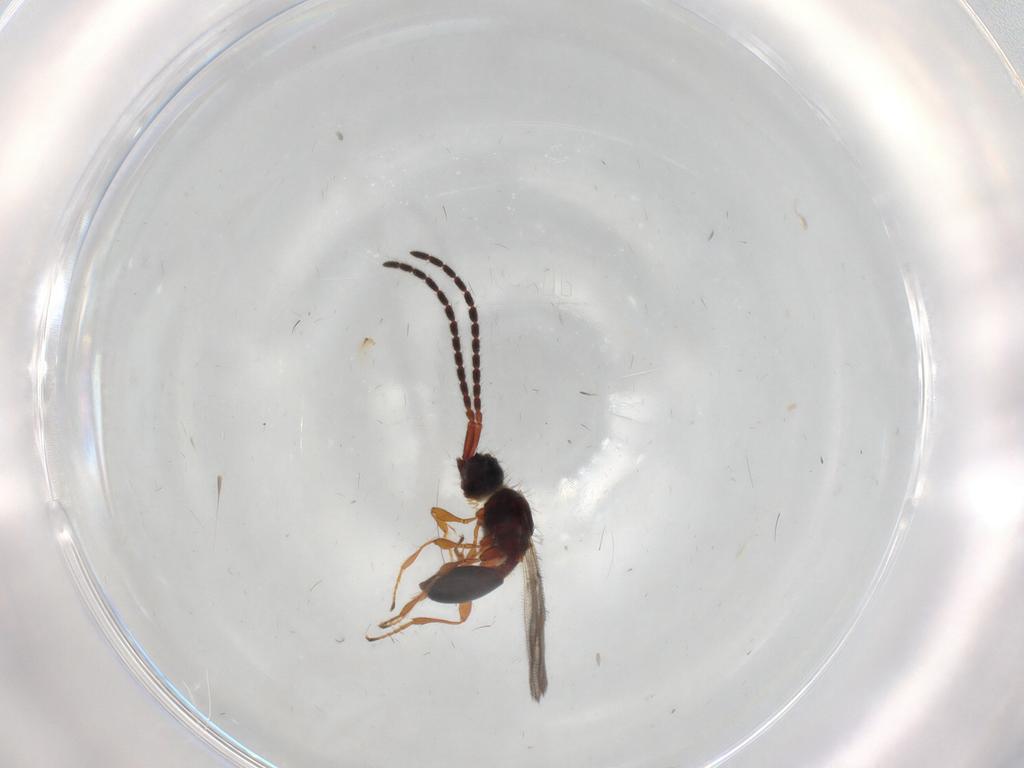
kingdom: Animalia
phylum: Arthropoda
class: Insecta
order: Hymenoptera
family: Diapriidae
